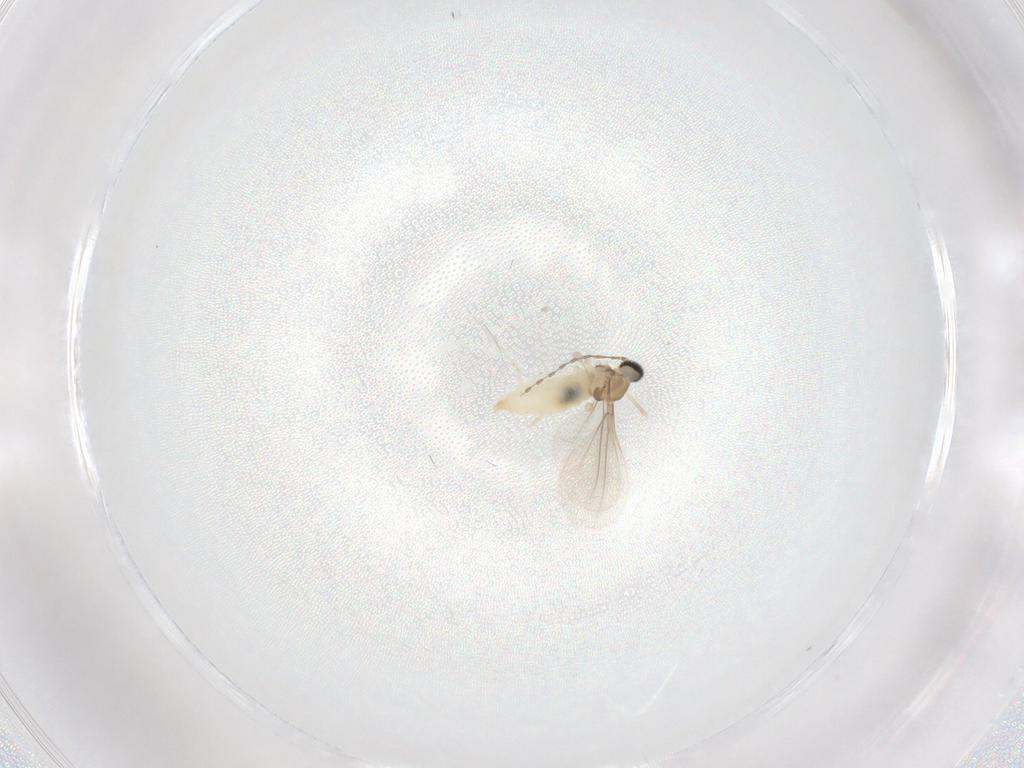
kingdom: Animalia
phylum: Arthropoda
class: Insecta
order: Diptera
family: Cecidomyiidae
